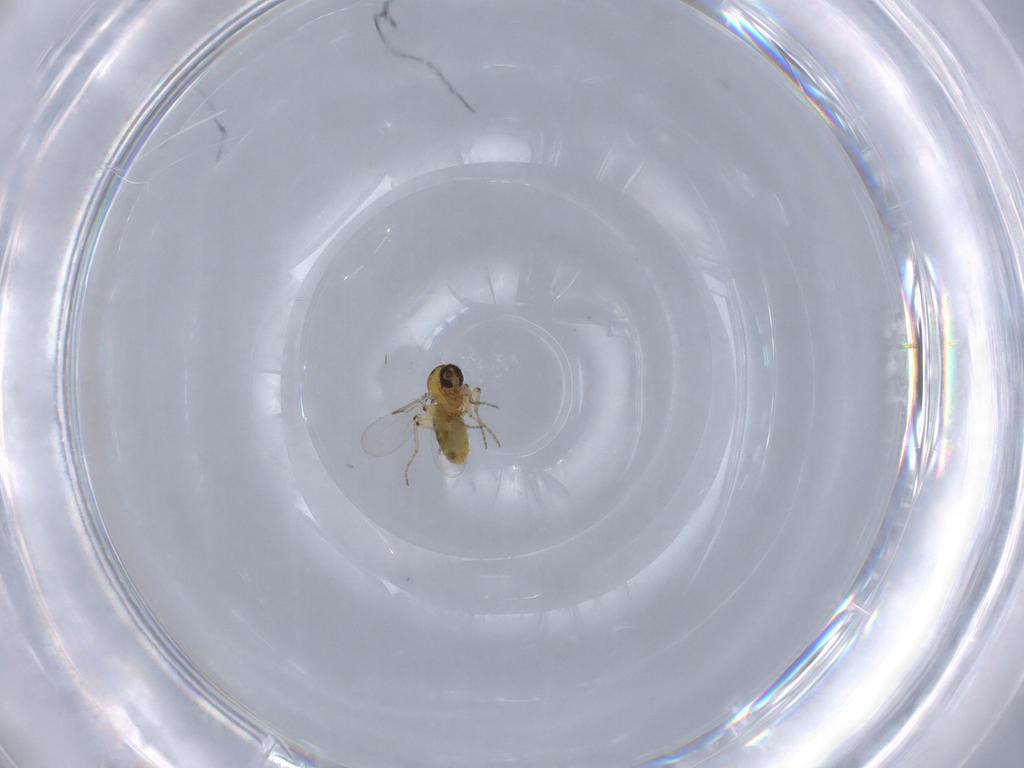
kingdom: Animalia
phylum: Arthropoda
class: Insecta
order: Diptera
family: Ceratopogonidae
